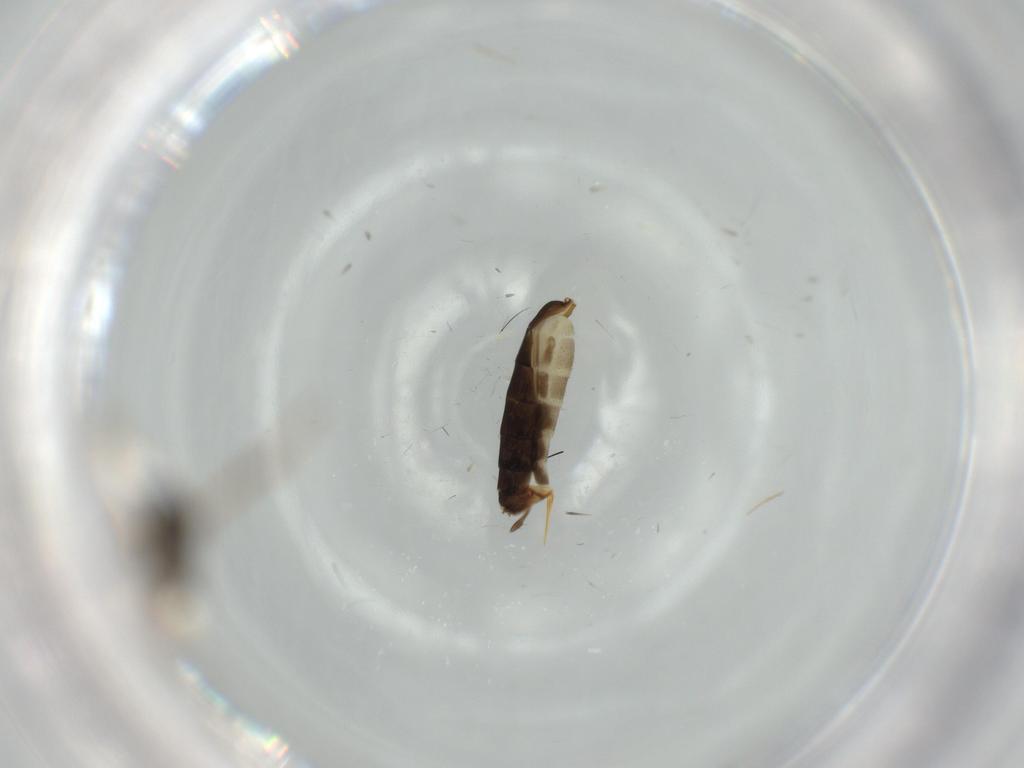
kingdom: Animalia
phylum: Arthropoda
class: Insecta
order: Hymenoptera
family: Ichneumonidae
